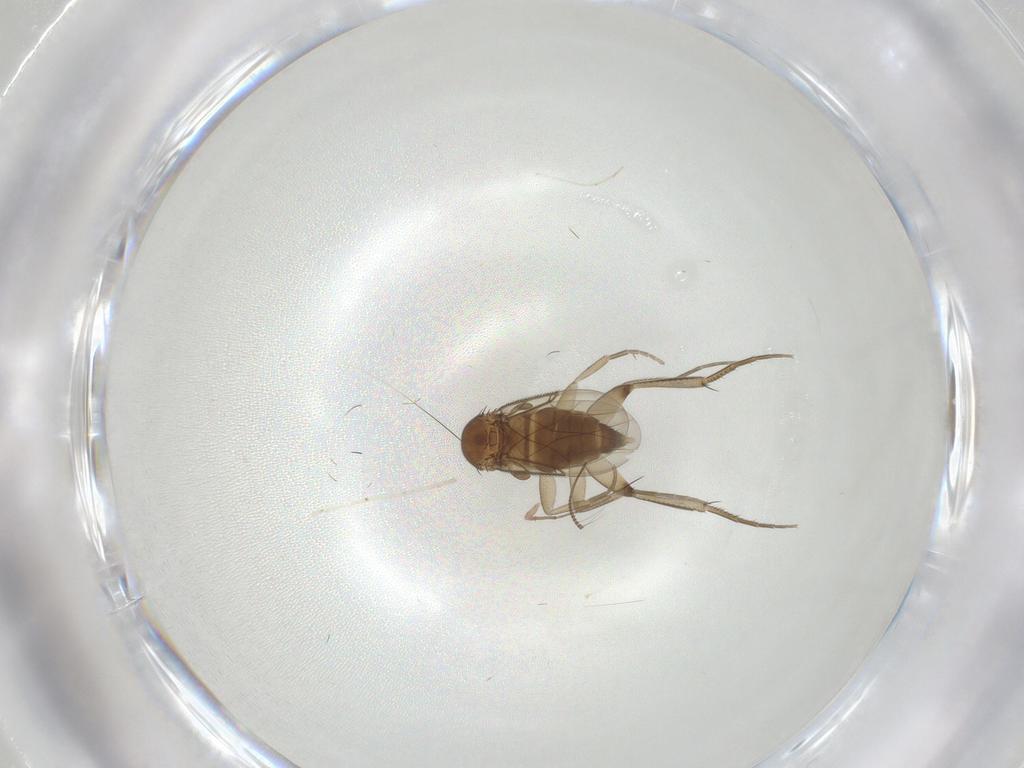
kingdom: Animalia
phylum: Arthropoda
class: Insecta
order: Diptera
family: Phoridae
